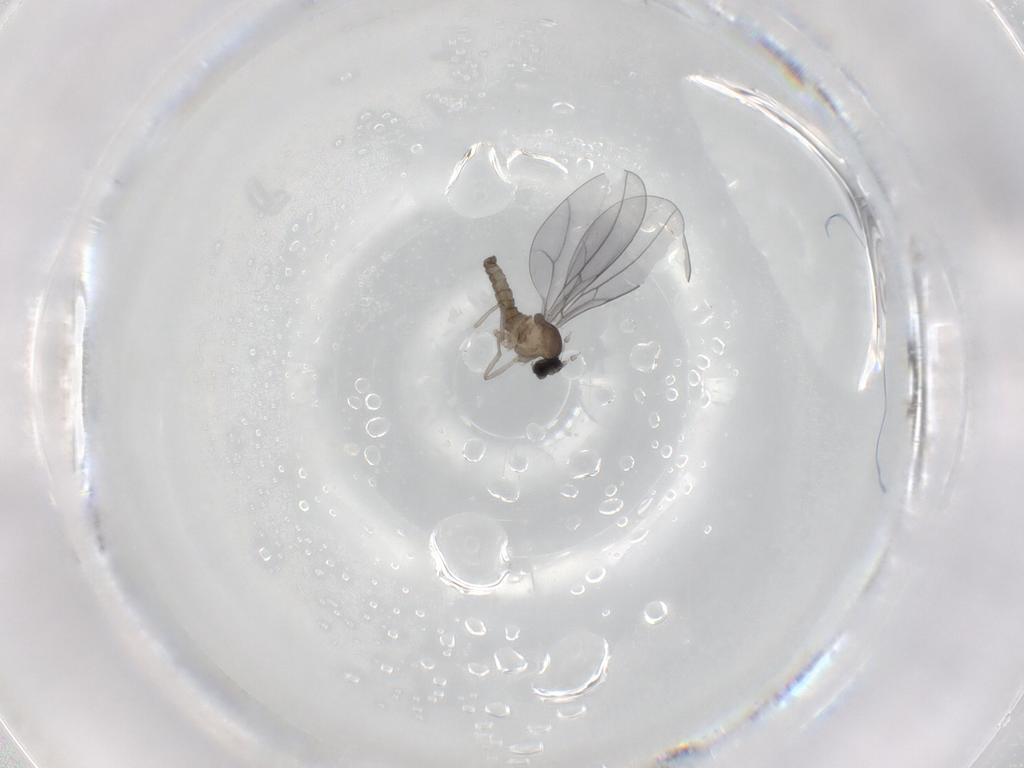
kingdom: Animalia
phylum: Arthropoda
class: Insecta
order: Diptera
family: Cecidomyiidae
